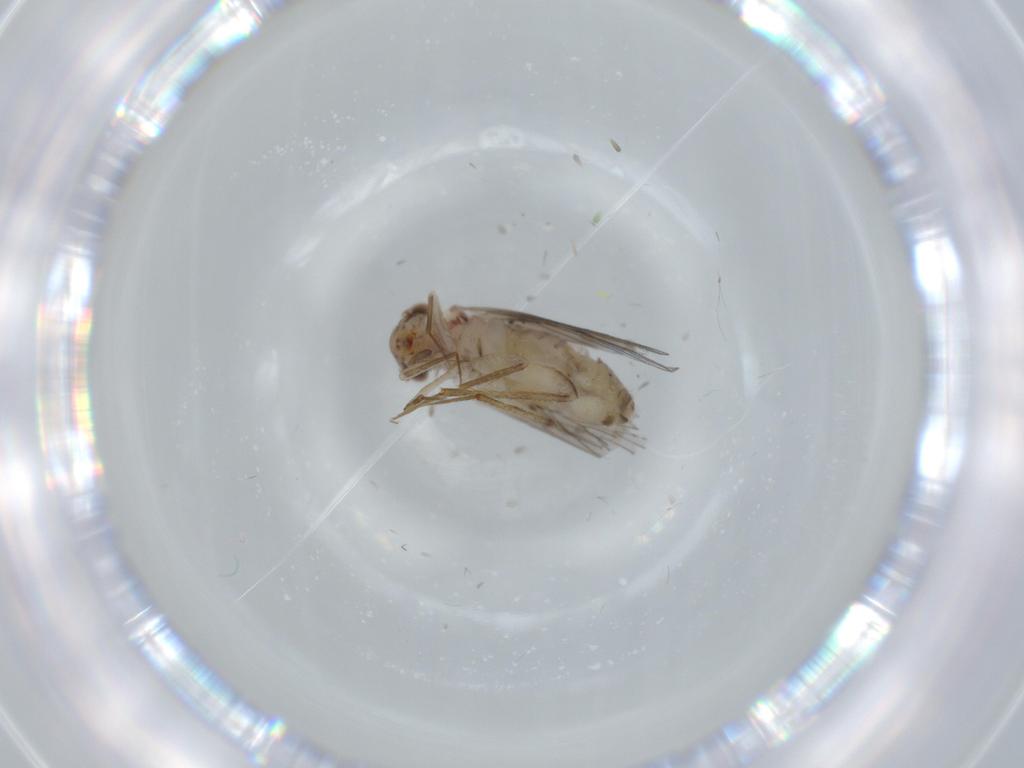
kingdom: Animalia
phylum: Arthropoda
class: Insecta
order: Psocodea
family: Lepidopsocidae
